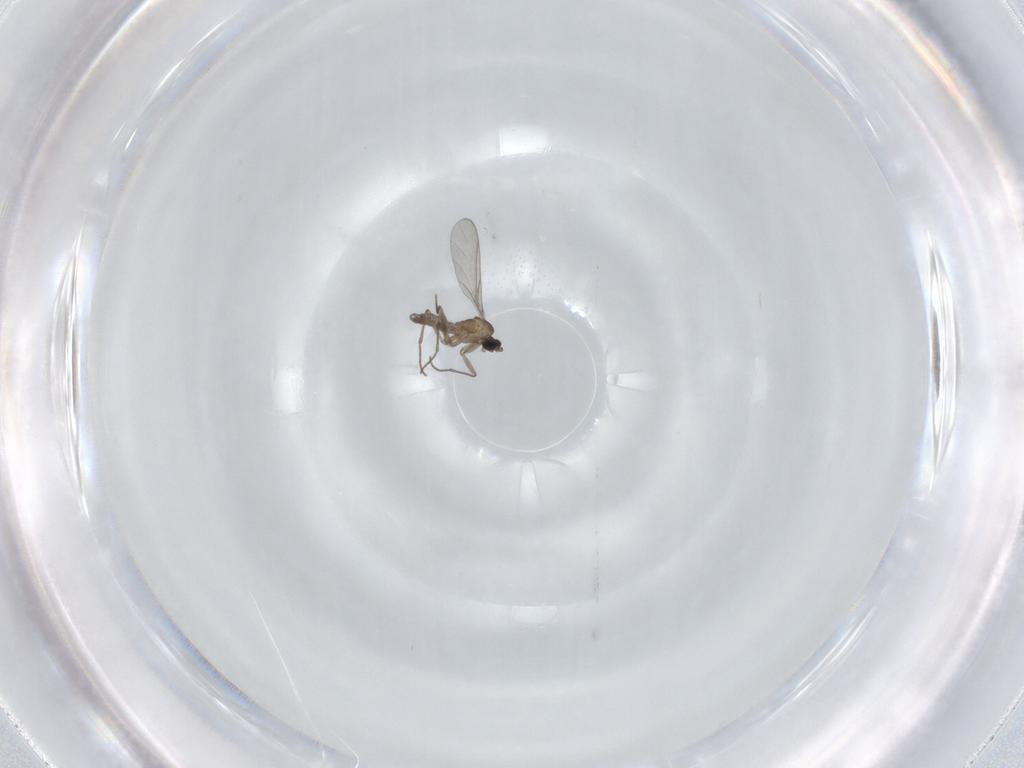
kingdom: Animalia
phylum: Arthropoda
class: Insecta
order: Diptera
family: Sciaridae
